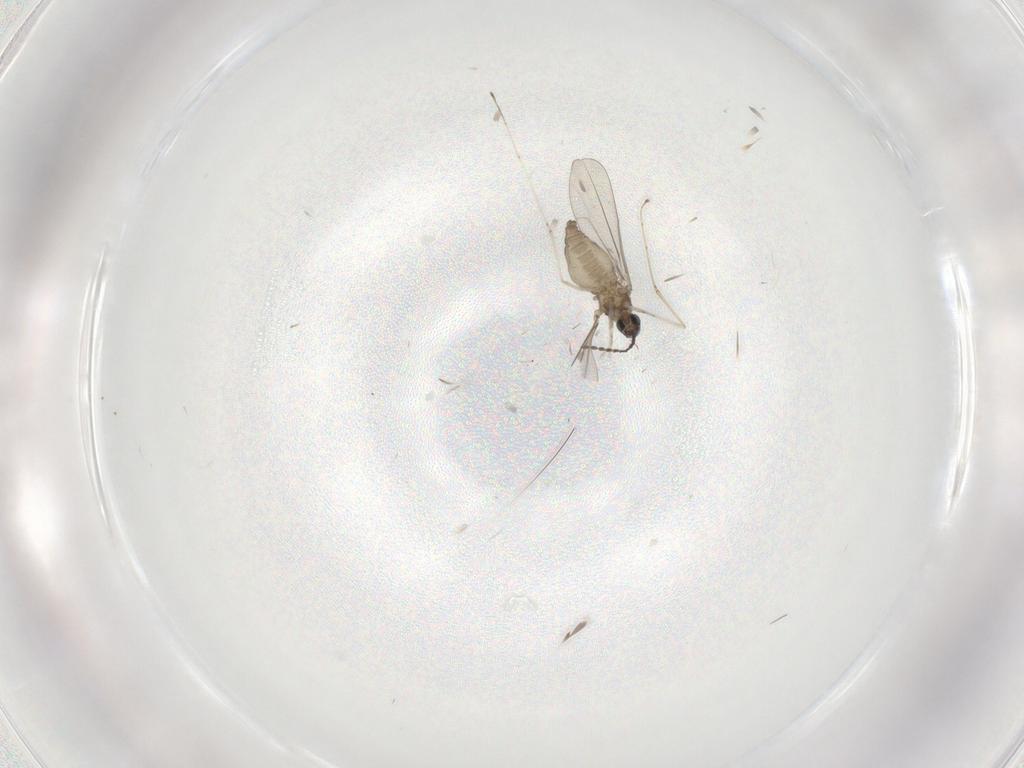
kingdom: Animalia
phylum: Arthropoda
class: Insecta
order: Diptera
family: Cecidomyiidae
